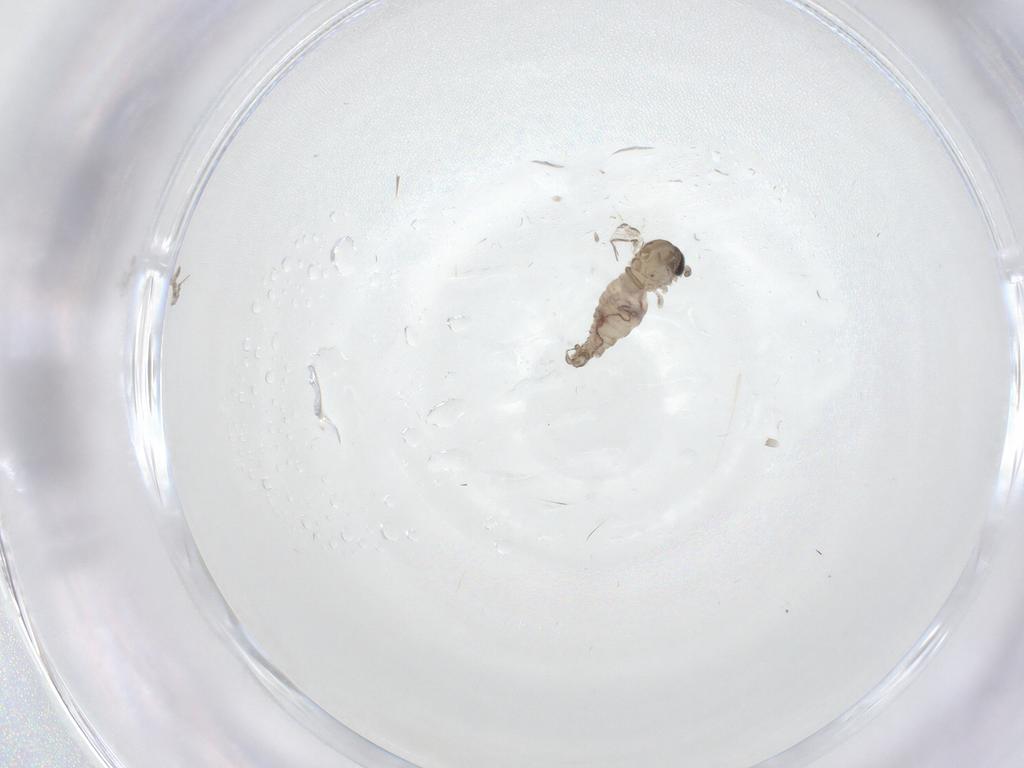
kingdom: Animalia
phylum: Arthropoda
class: Insecta
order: Diptera
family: Psychodidae
